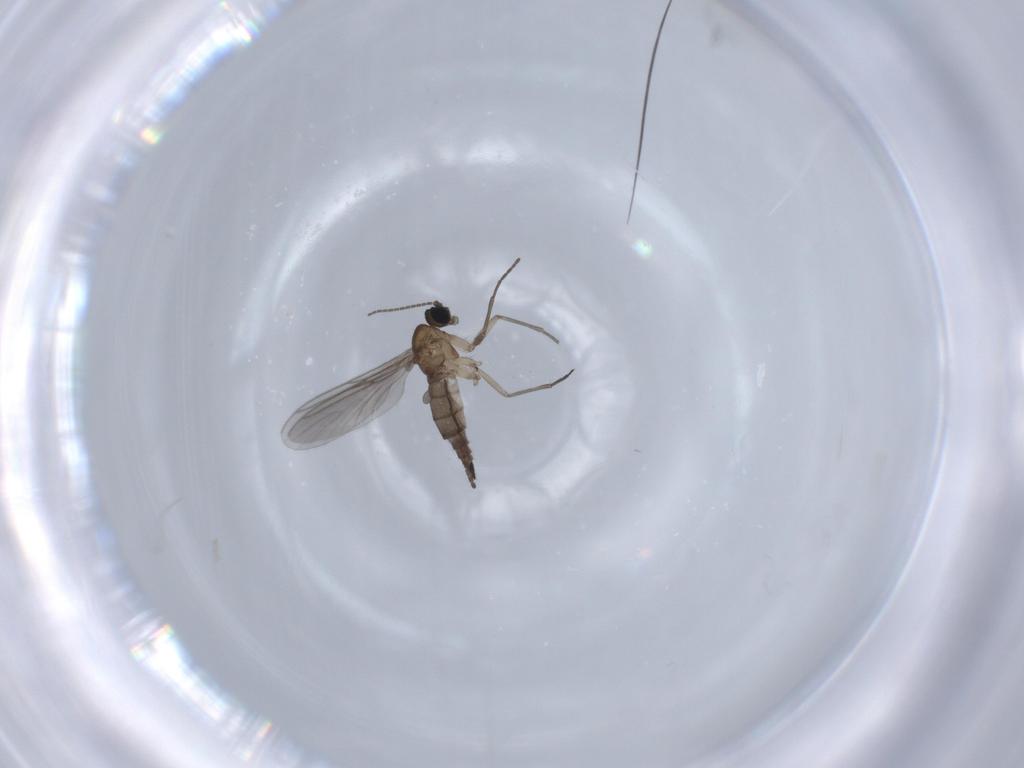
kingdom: Animalia
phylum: Arthropoda
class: Insecta
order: Diptera
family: Sciaridae
